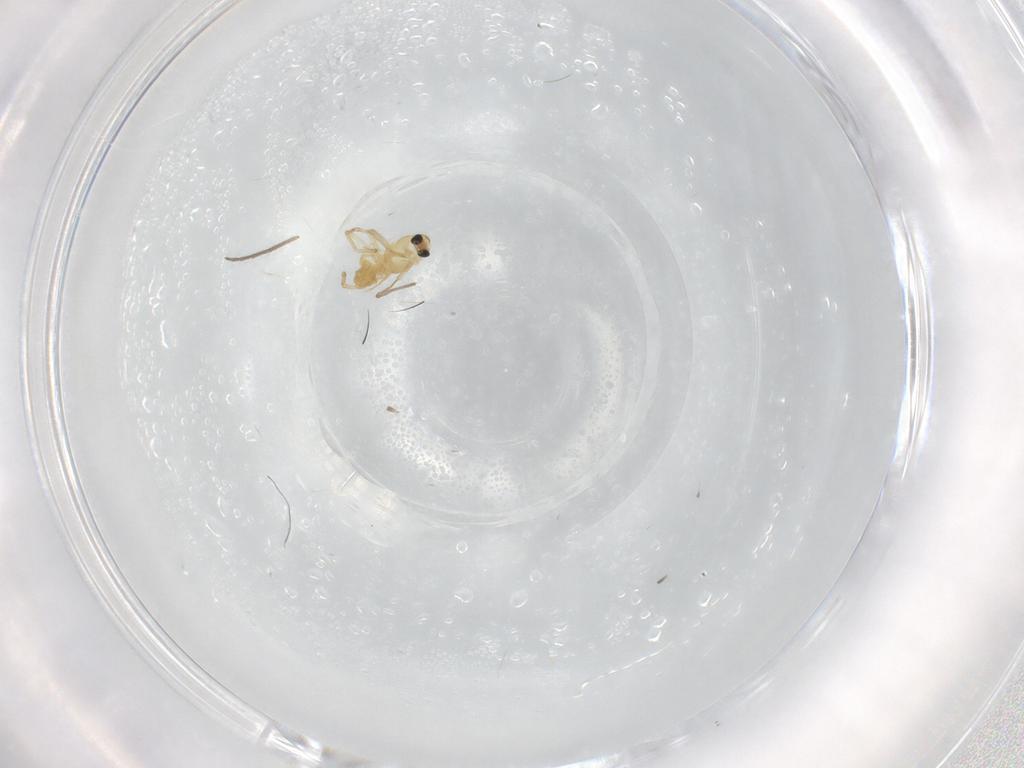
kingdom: Animalia
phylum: Arthropoda
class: Insecta
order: Diptera
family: Chironomidae
